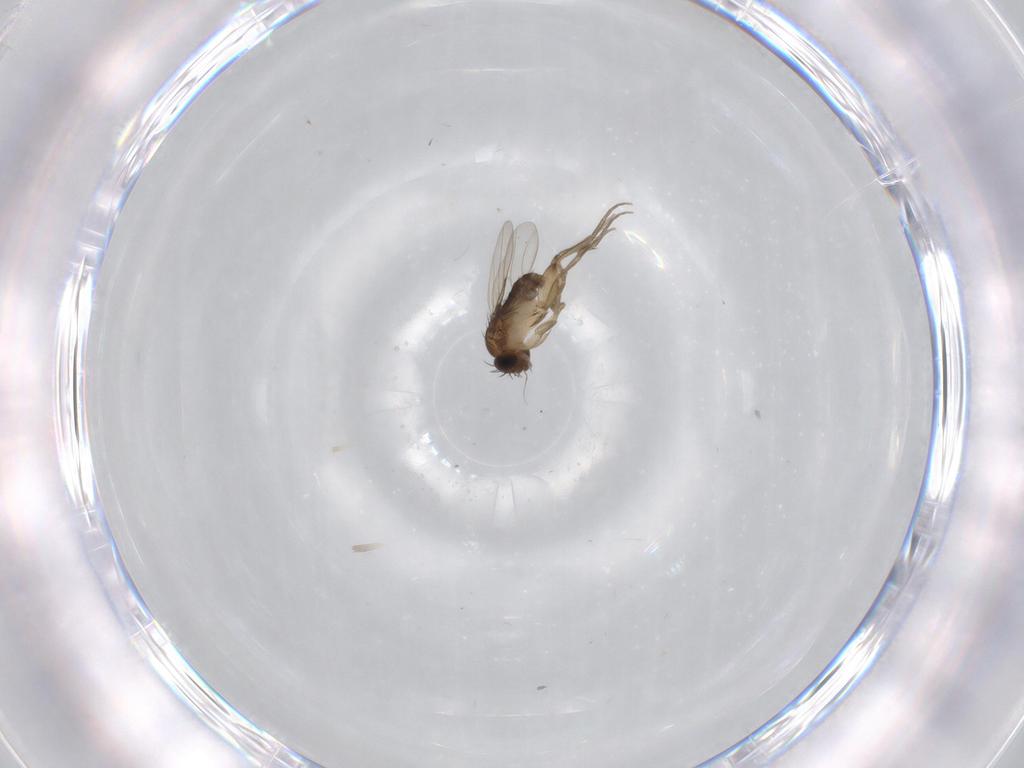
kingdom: Animalia
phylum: Arthropoda
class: Insecta
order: Diptera
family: Phoridae
